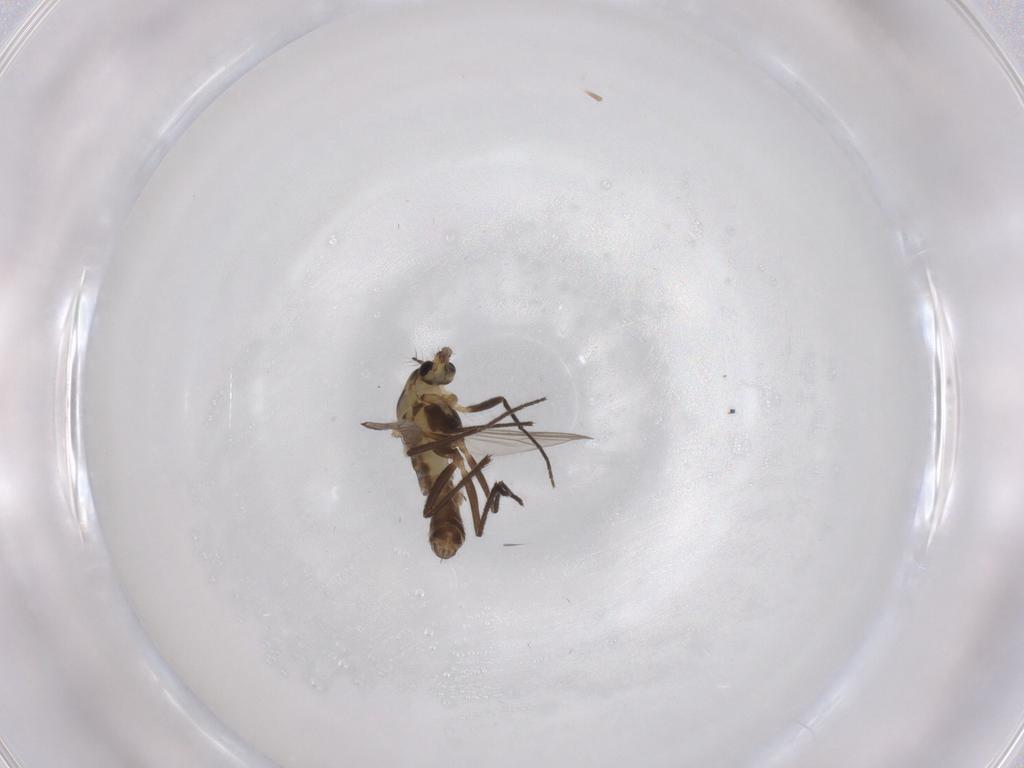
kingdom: Animalia
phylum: Arthropoda
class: Insecta
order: Diptera
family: Chironomidae
